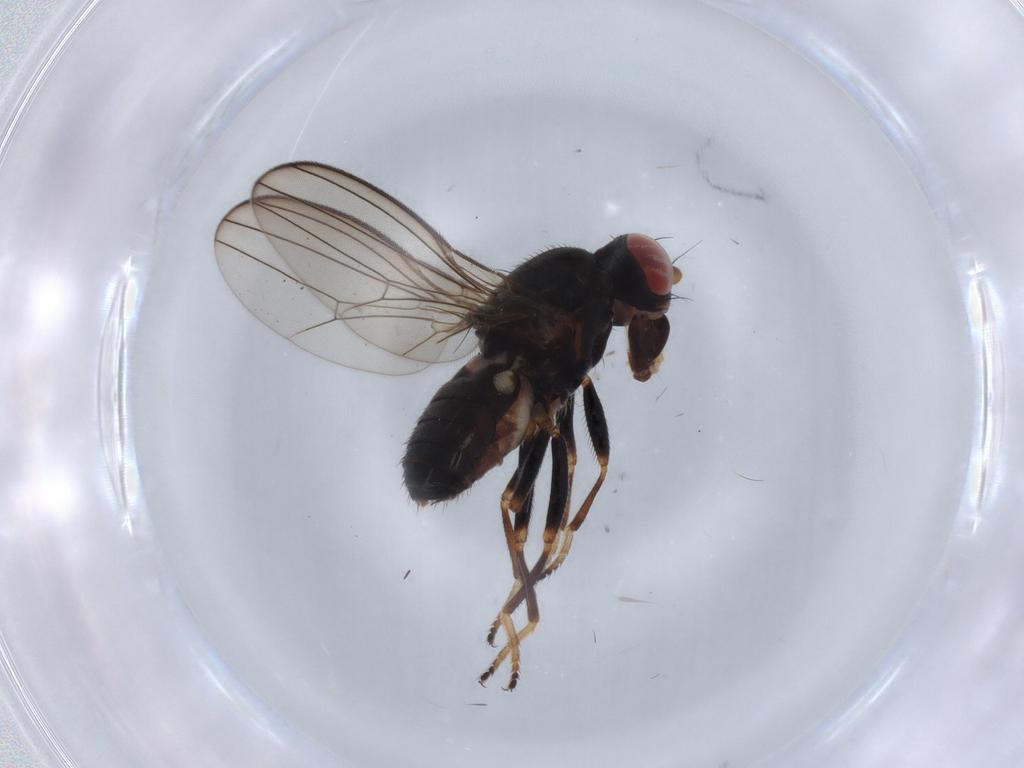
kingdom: Animalia
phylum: Arthropoda
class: Insecta
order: Diptera
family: Aulacigastridae
